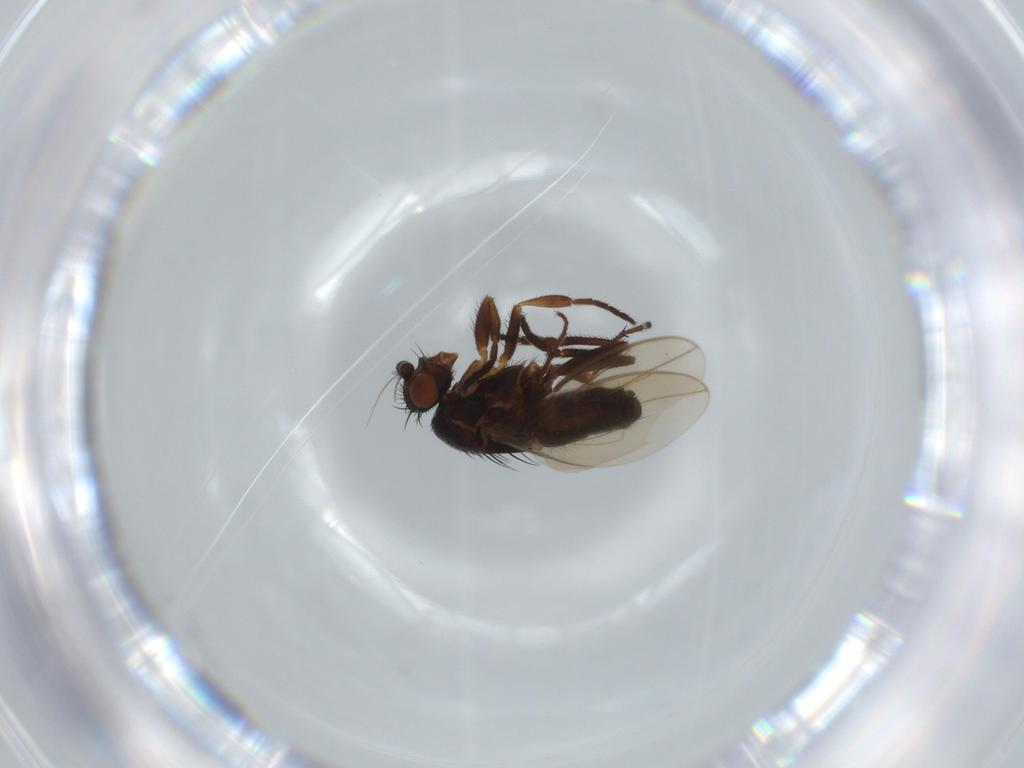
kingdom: Animalia
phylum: Arthropoda
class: Insecta
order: Diptera
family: Sphaeroceridae
